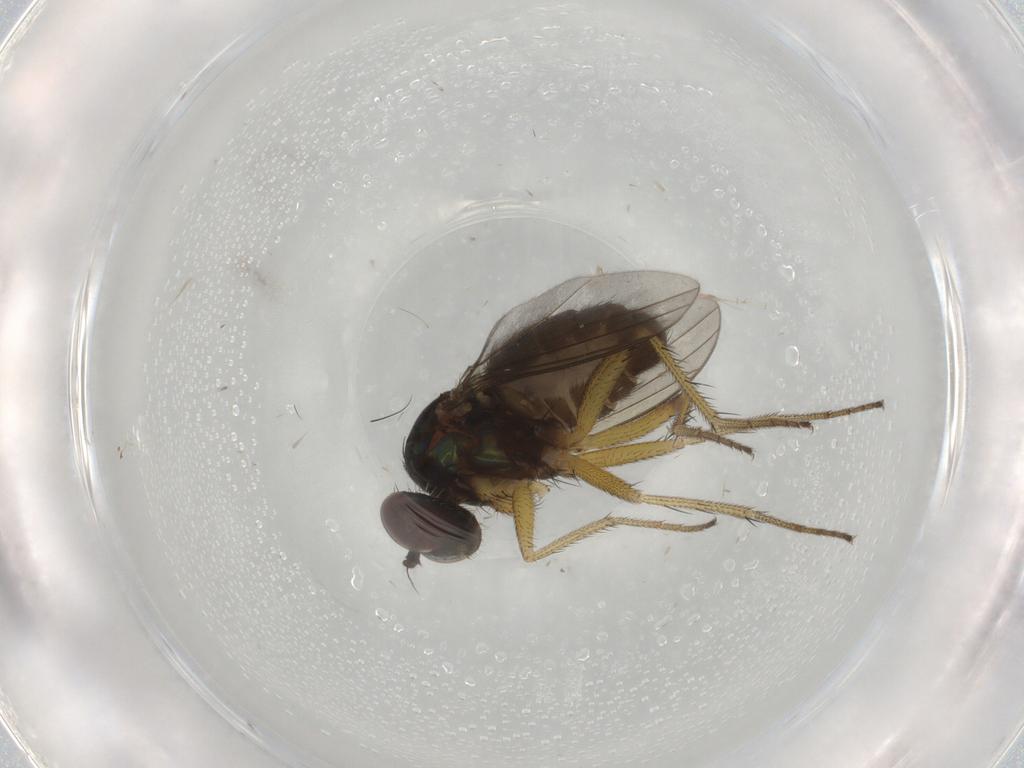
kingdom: Animalia
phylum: Arthropoda
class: Insecta
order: Diptera
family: Dolichopodidae
